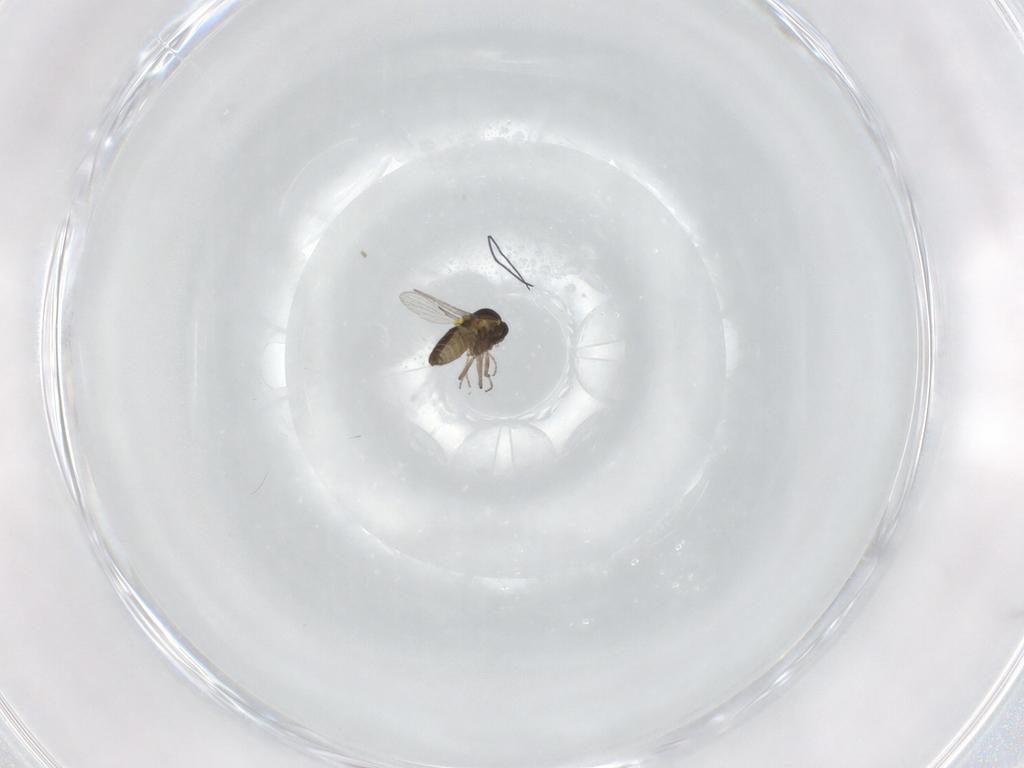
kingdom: Animalia
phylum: Arthropoda
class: Insecta
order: Diptera
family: Ceratopogonidae
